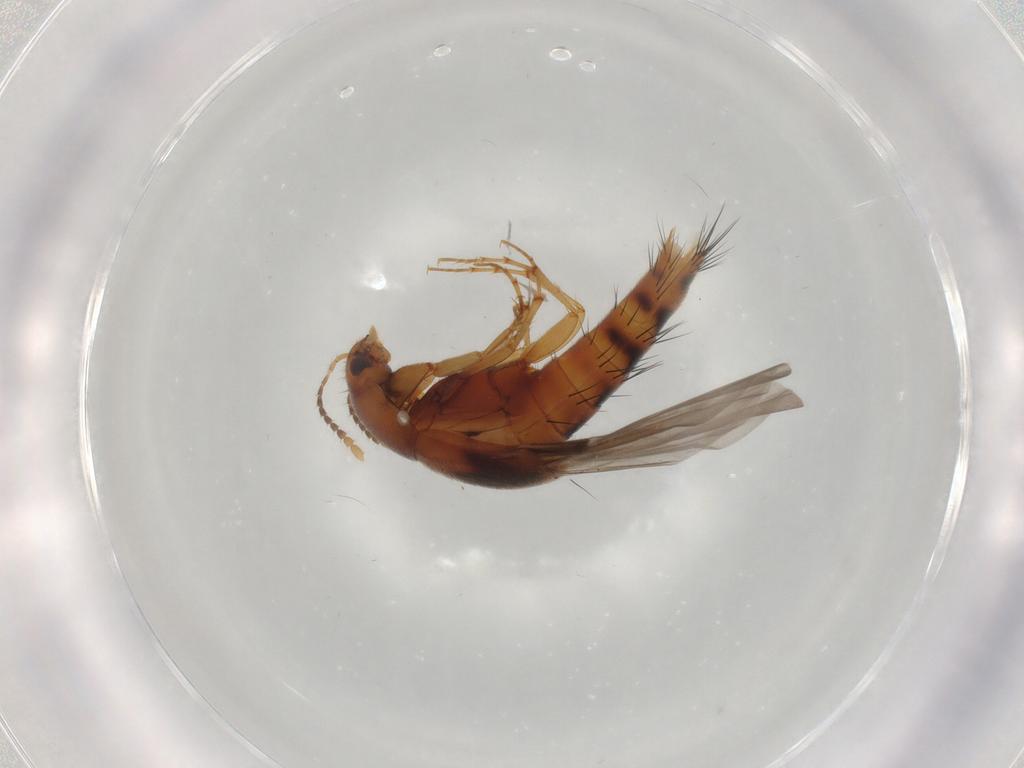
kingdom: Animalia
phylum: Arthropoda
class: Insecta
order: Coleoptera
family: Staphylinidae
